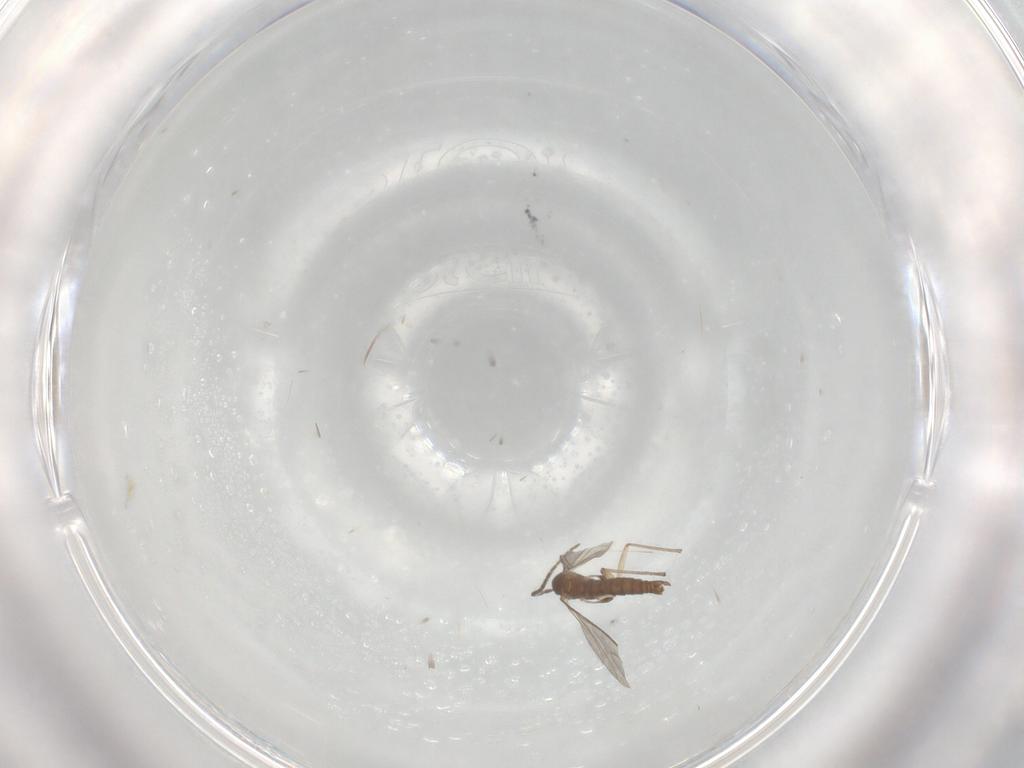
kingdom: Animalia
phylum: Arthropoda
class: Insecta
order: Diptera
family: Sciaridae
